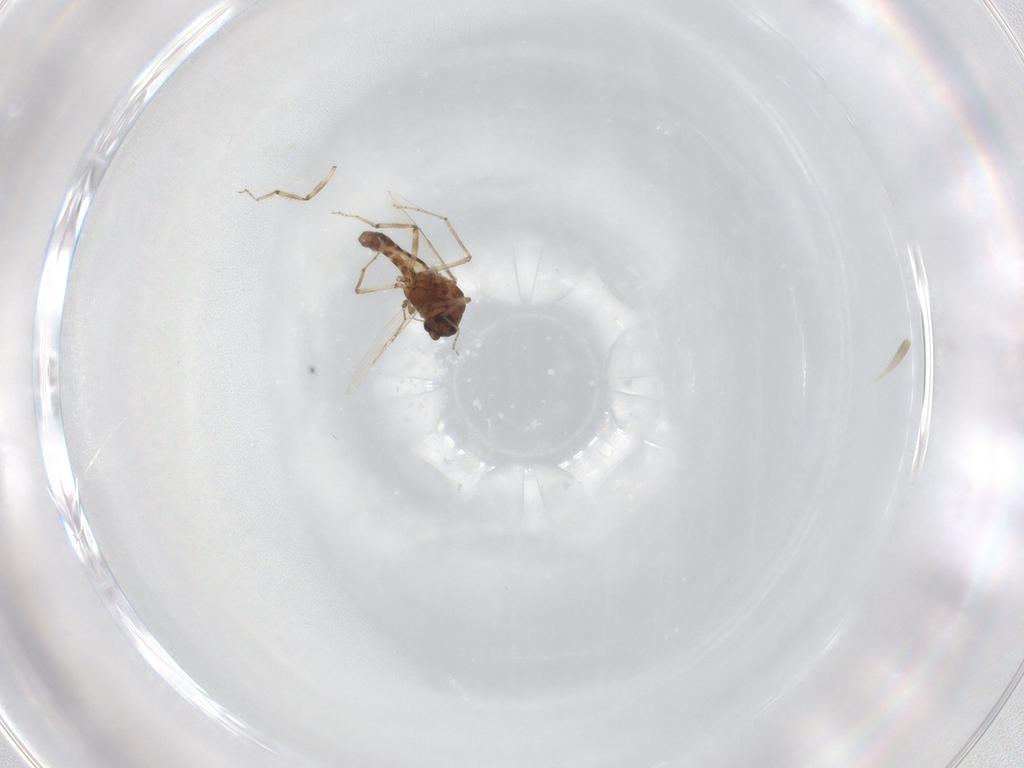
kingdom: Animalia
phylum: Arthropoda
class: Insecta
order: Diptera
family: Ceratopogonidae
